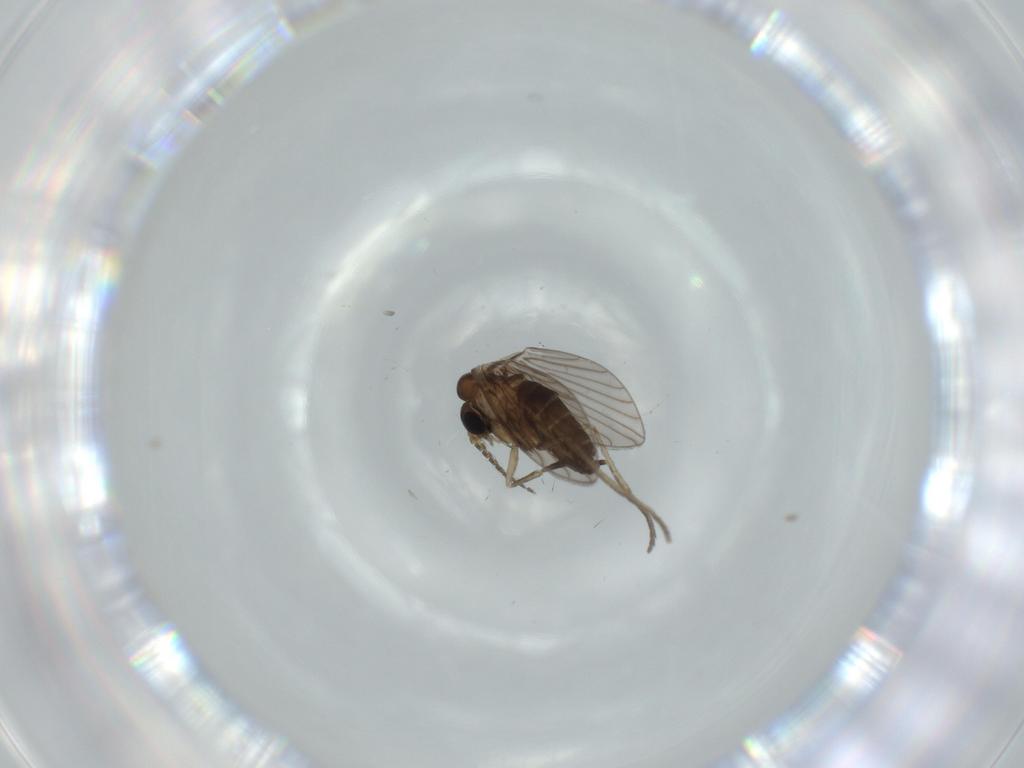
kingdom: Animalia
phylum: Arthropoda
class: Insecta
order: Diptera
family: Psychodidae
